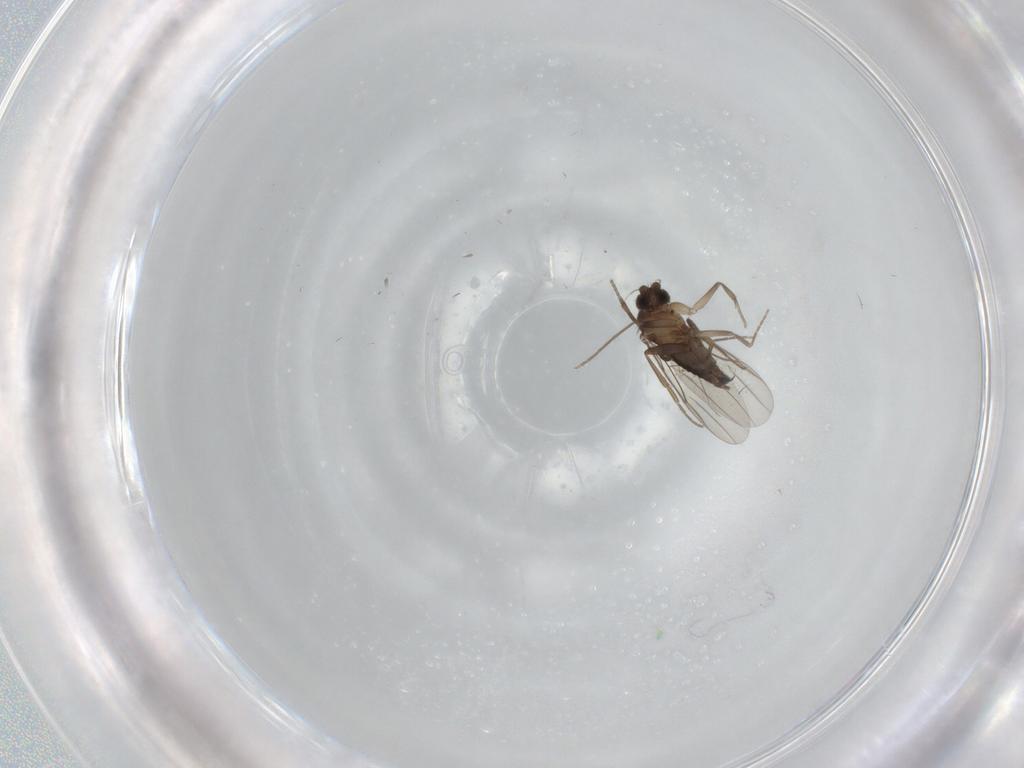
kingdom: Animalia
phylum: Arthropoda
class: Insecta
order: Diptera
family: Phoridae
